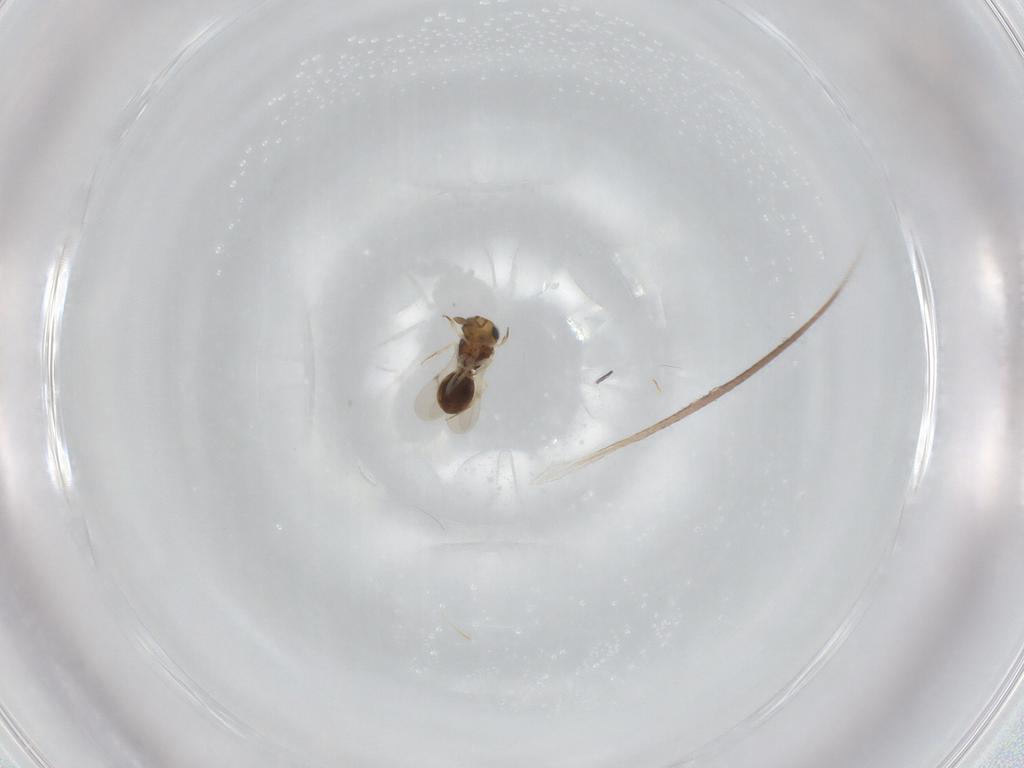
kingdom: Animalia
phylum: Arthropoda
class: Insecta
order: Hymenoptera
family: Scelionidae
